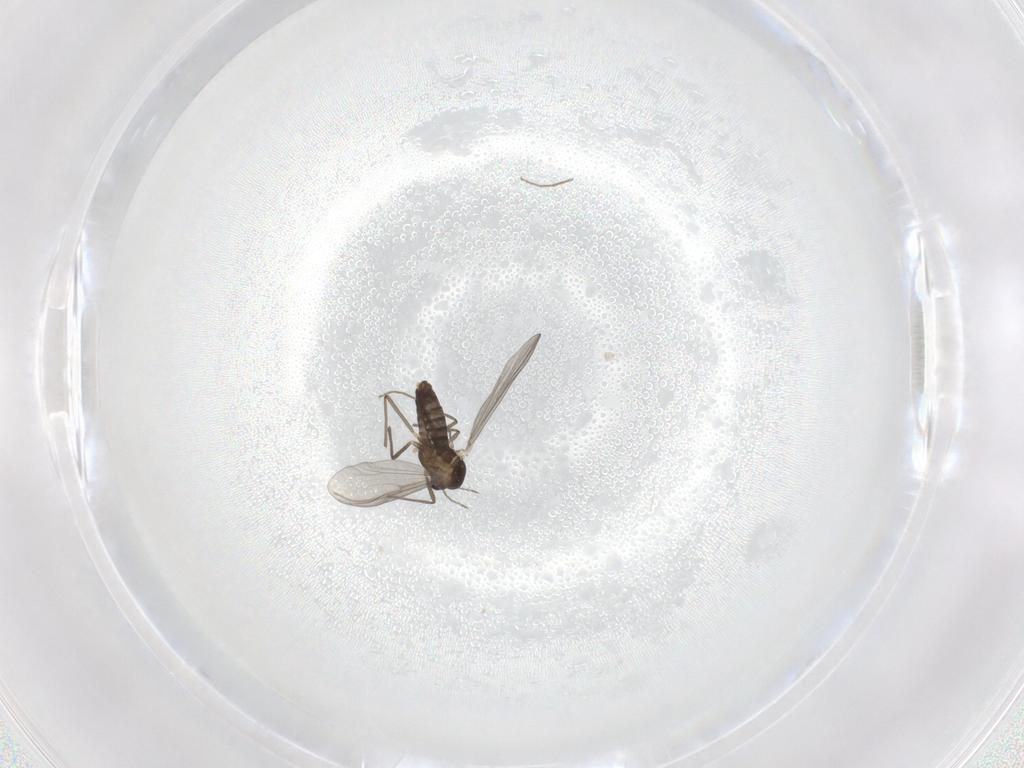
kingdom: Animalia
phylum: Arthropoda
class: Insecta
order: Diptera
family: Chironomidae
